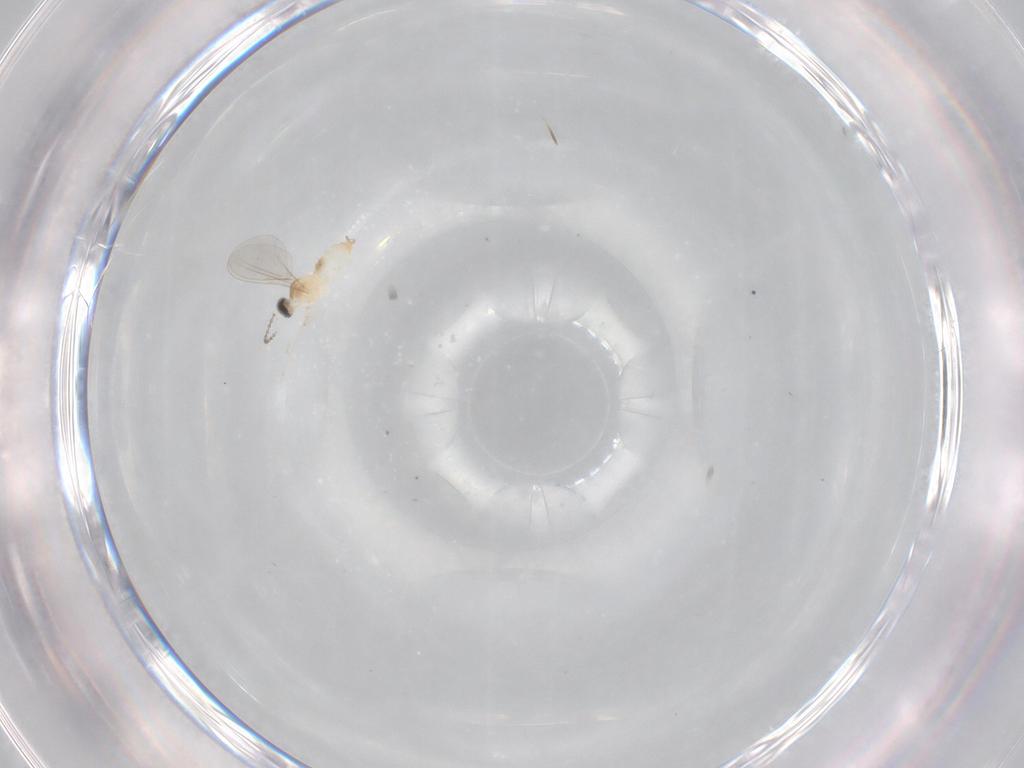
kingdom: Animalia
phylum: Arthropoda
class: Insecta
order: Diptera
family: Cecidomyiidae
